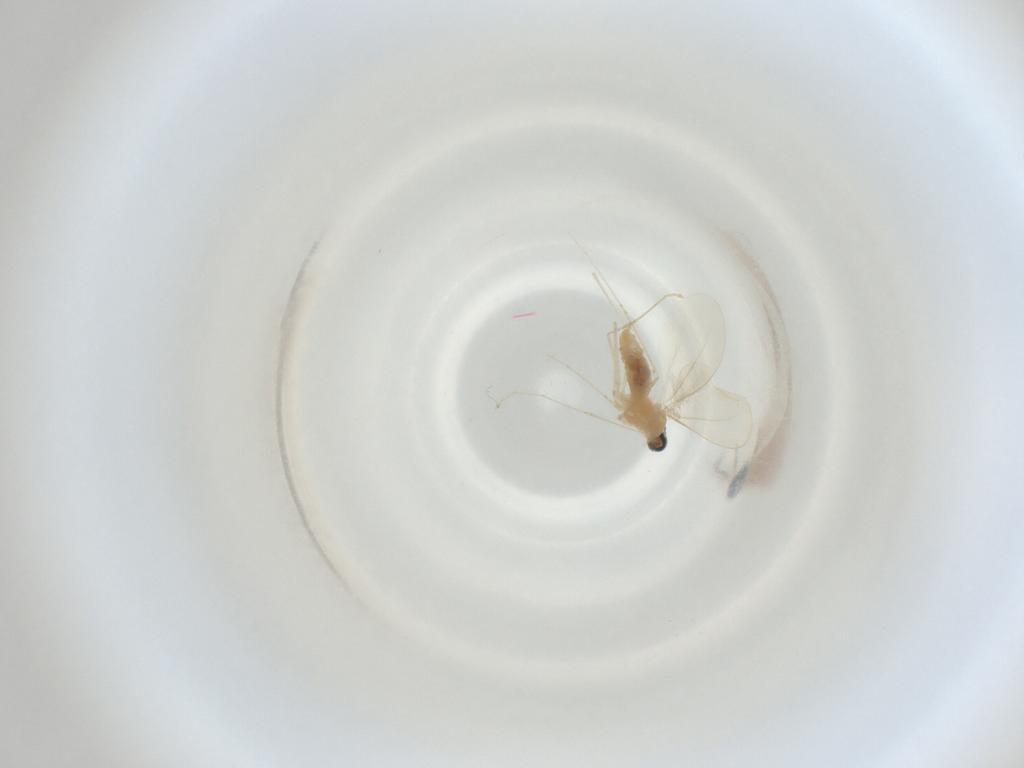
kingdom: Animalia
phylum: Arthropoda
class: Insecta
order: Diptera
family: Cecidomyiidae
